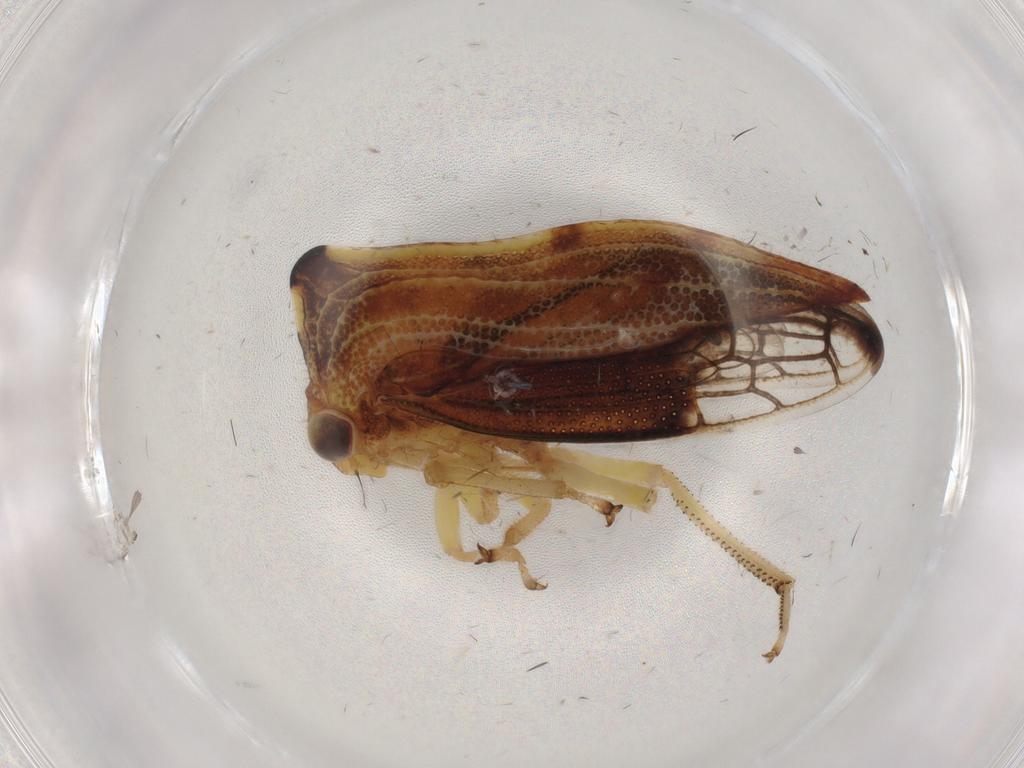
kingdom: Animalia
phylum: Arthropoda
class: Insecta
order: Hemiptera
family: Membracidae
